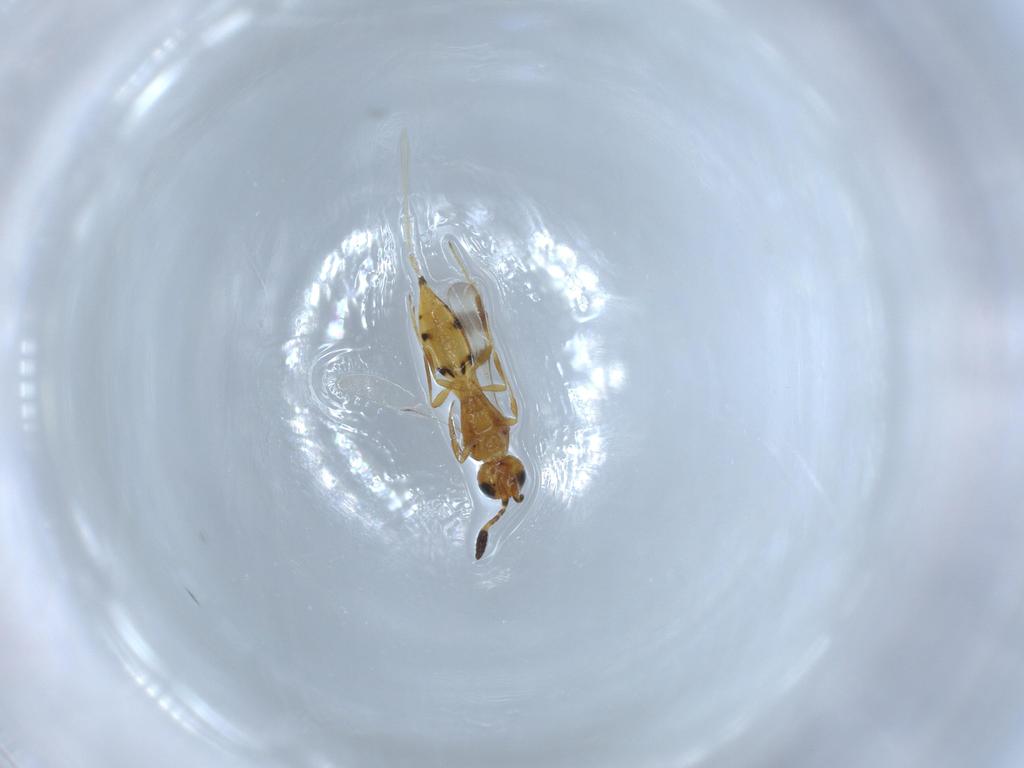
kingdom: Animalia
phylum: Arthropoda
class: Insecta
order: Hymenoptera
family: Scelionidae
